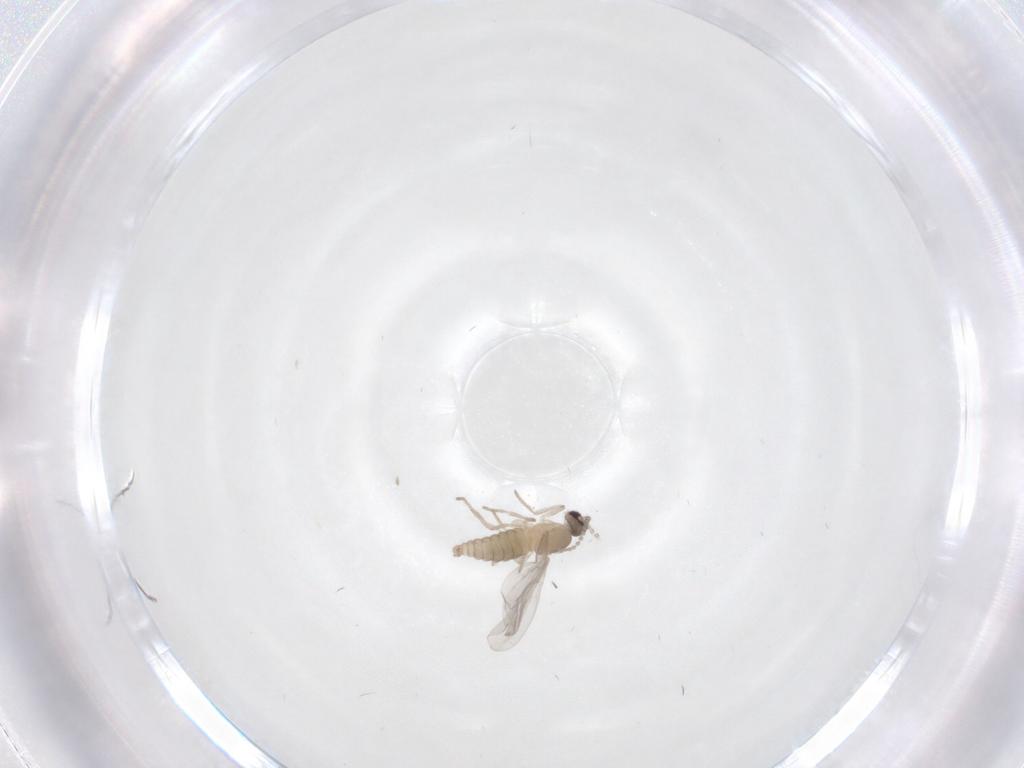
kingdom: Animalia
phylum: Arthropoda
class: Insecta
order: Diptera
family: Cecidomyiidae
